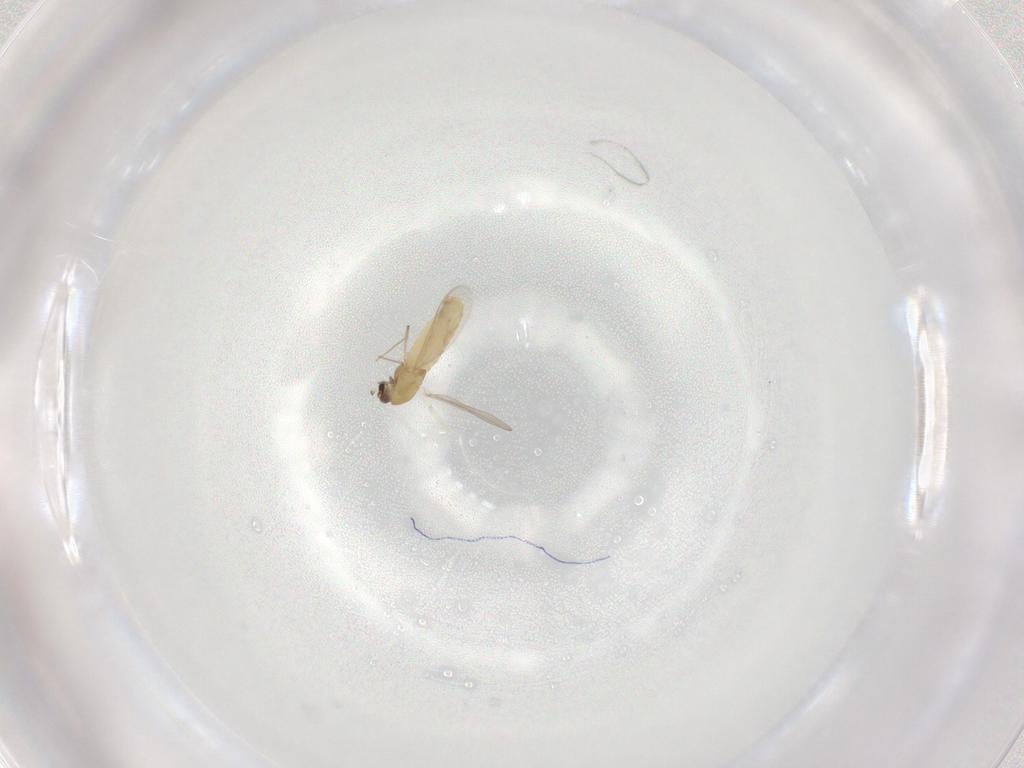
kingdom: Animalia
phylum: Arthropoda
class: Insecta
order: Diptera
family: Chironomidae
